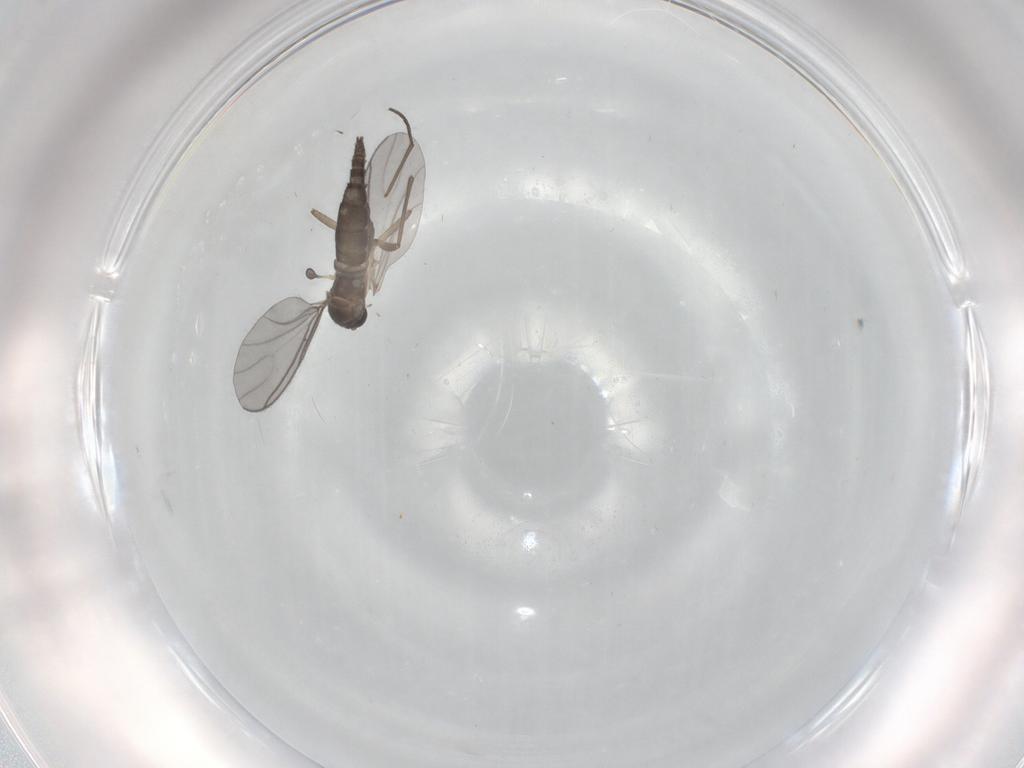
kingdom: Animalia
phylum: Arthropoda
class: Insecta
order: Diptera
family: Sciaridae
